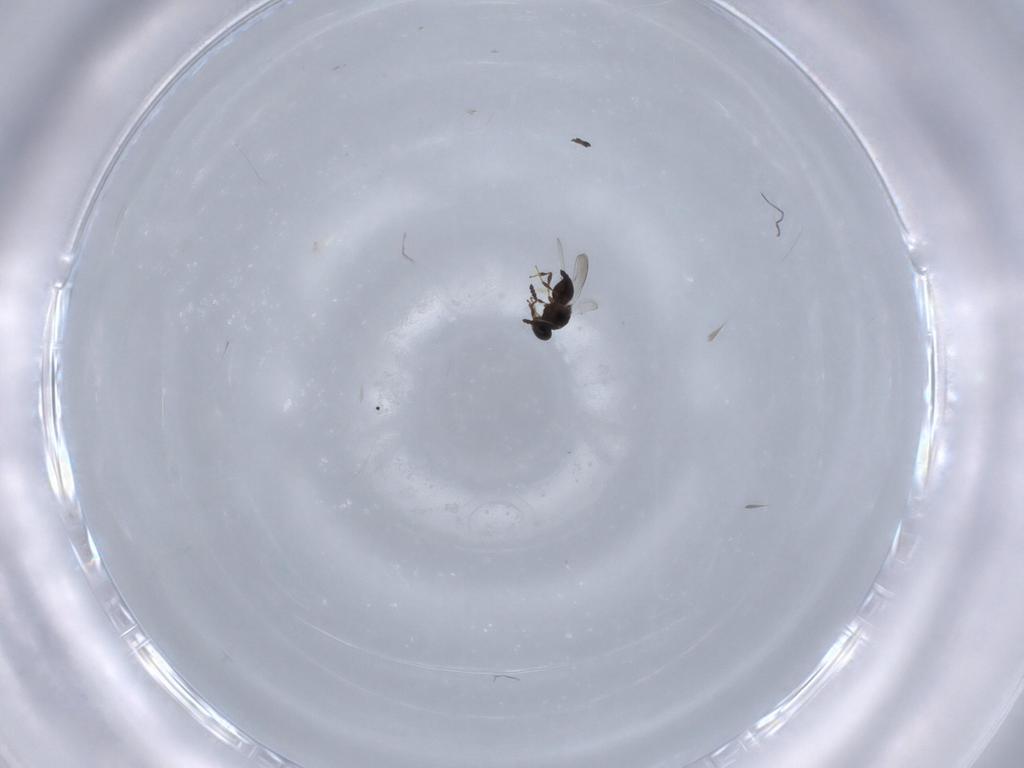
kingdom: Animalia
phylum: Arthropoda
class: Insecta
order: Hymenoptera
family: Platygastridae
